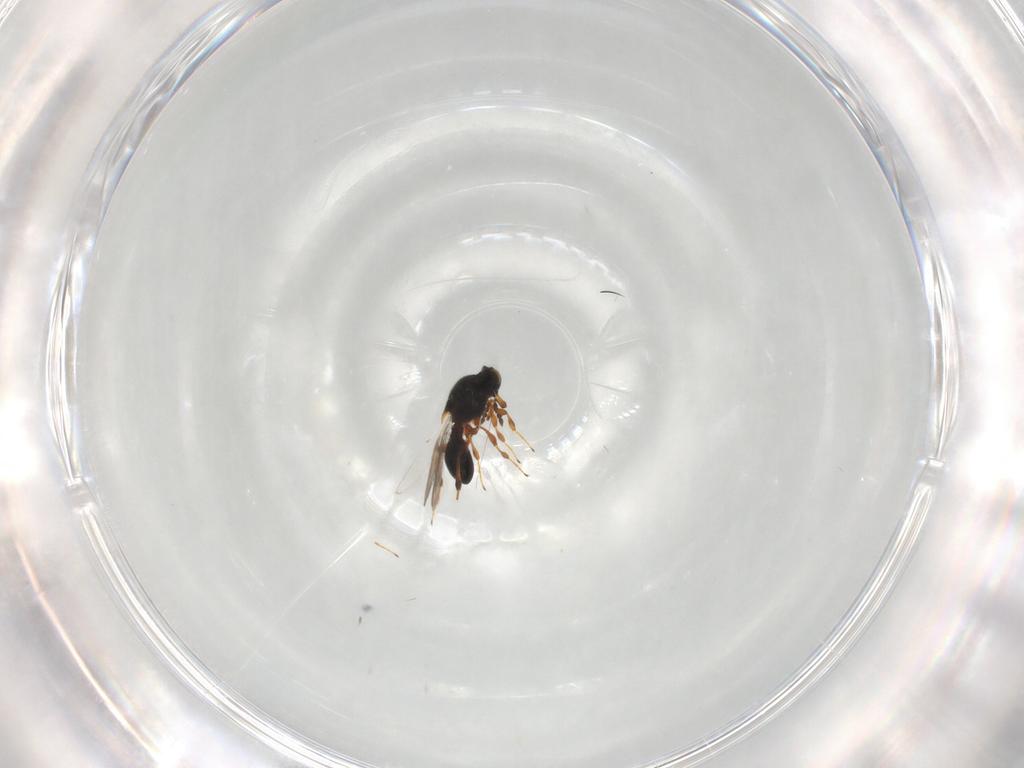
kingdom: Animalia
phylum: Arthropoda
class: Insecta
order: Hymenoptera
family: Platygastridae
